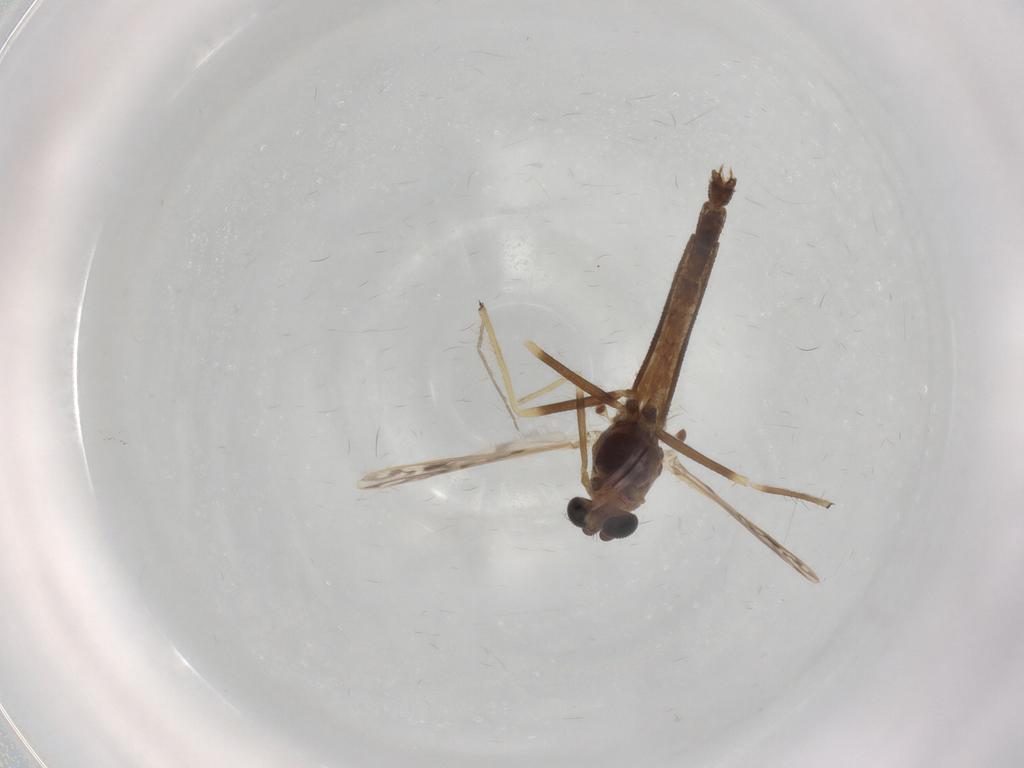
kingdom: Animalia
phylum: Arthropoda
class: Insecta
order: Diptera
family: Chironomidae
